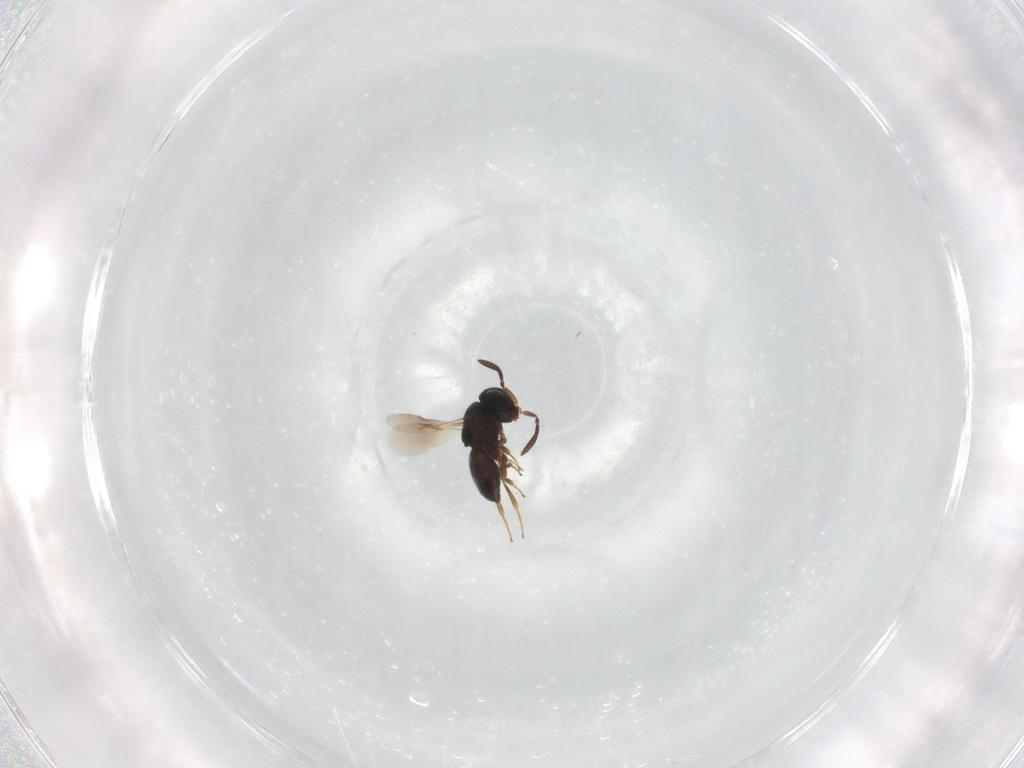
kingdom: Animalia
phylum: Arthropoda
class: Insecta
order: Hymenoptera
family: Scelionidae
